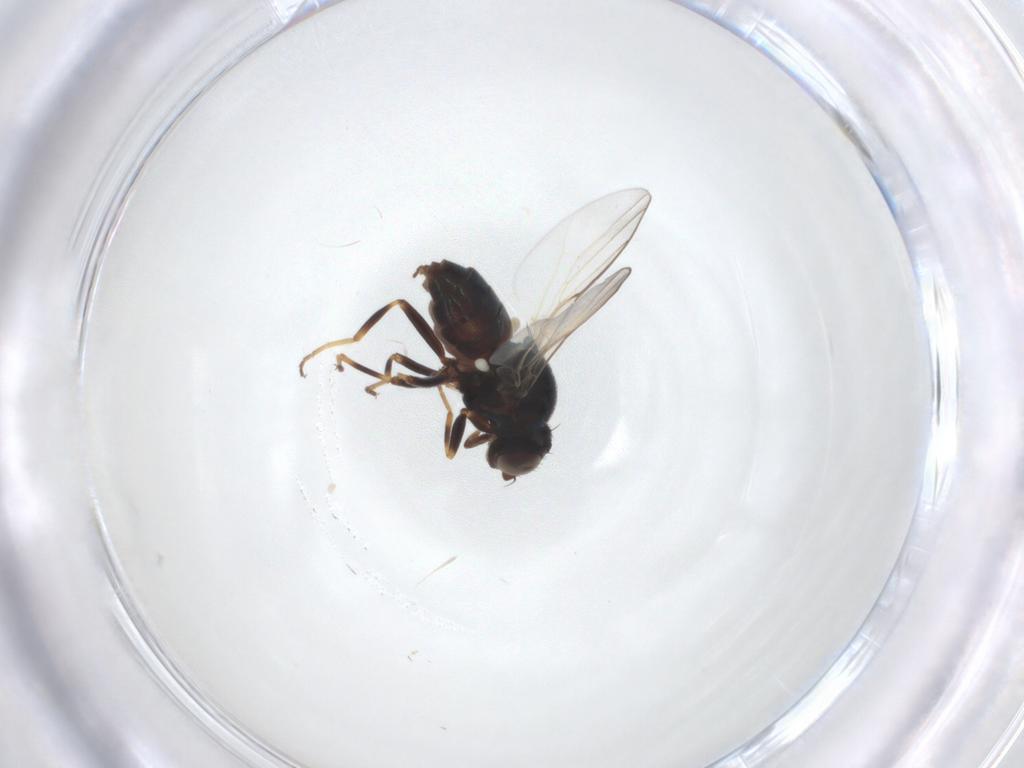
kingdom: Animalia
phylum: Arthropoda
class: Insecta
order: Diptera
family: Chloropidae
